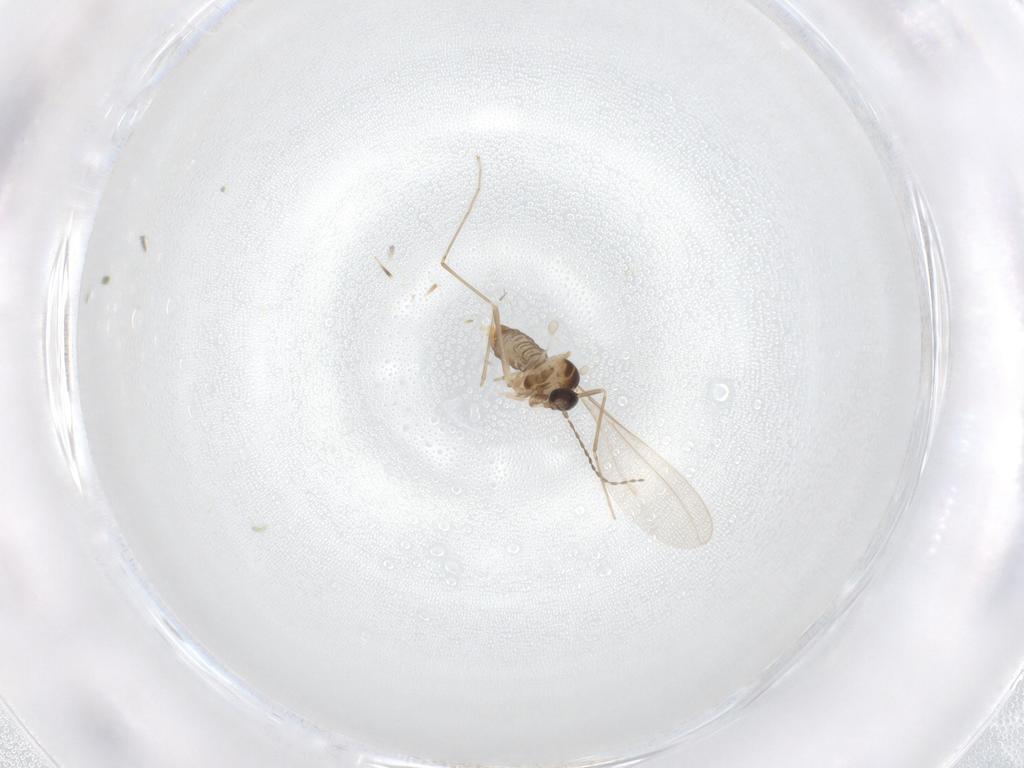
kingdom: Animalia
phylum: Arthropoda
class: Insecta
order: Diptera
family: Cecidomyiidae
